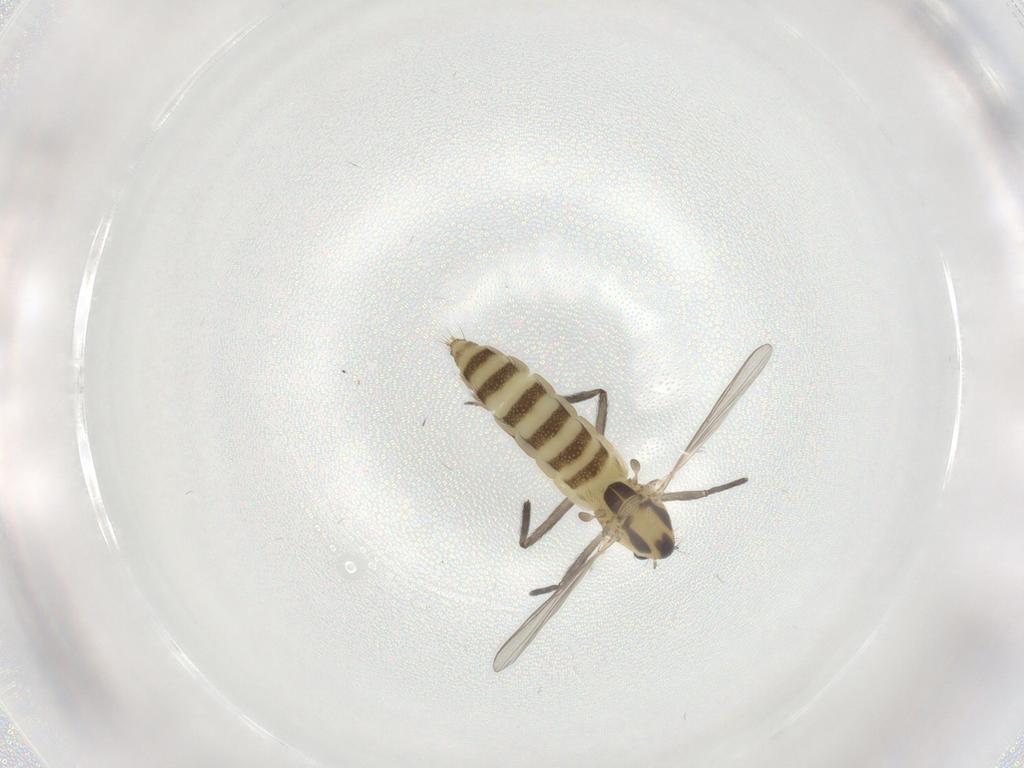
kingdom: Animalia
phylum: Arthropoda
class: Insecta
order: Diptera
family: Chironomidae
